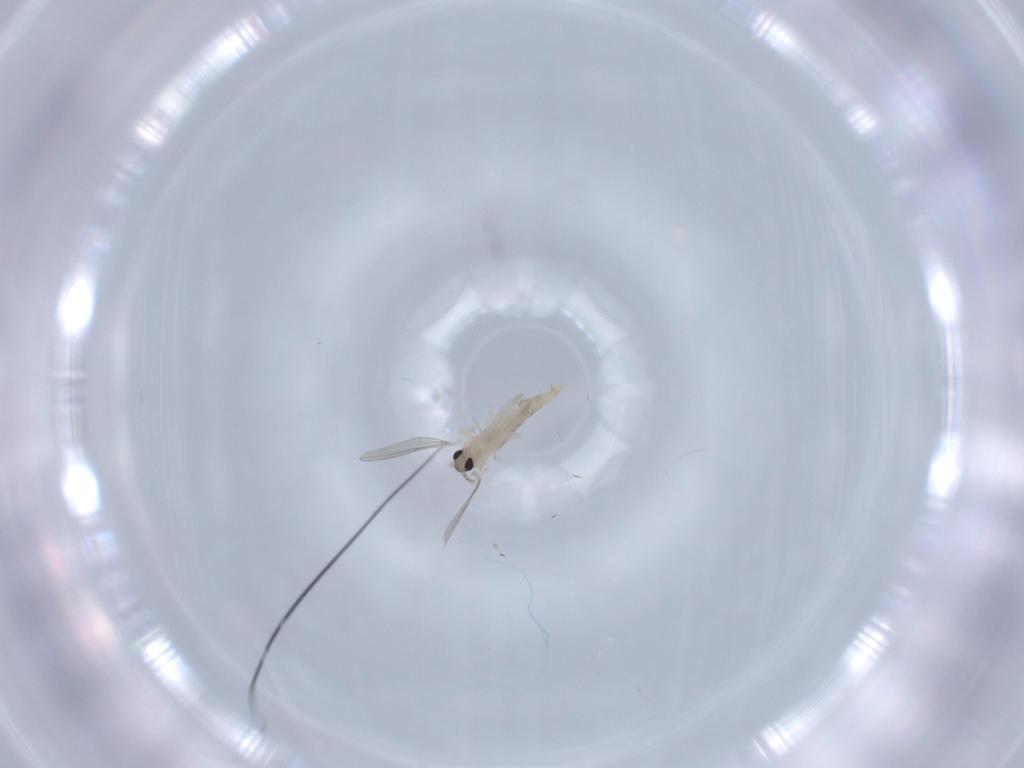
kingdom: Animalia
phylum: Arthropoda
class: Insecta
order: Diptera
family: Cecidomyiidae
